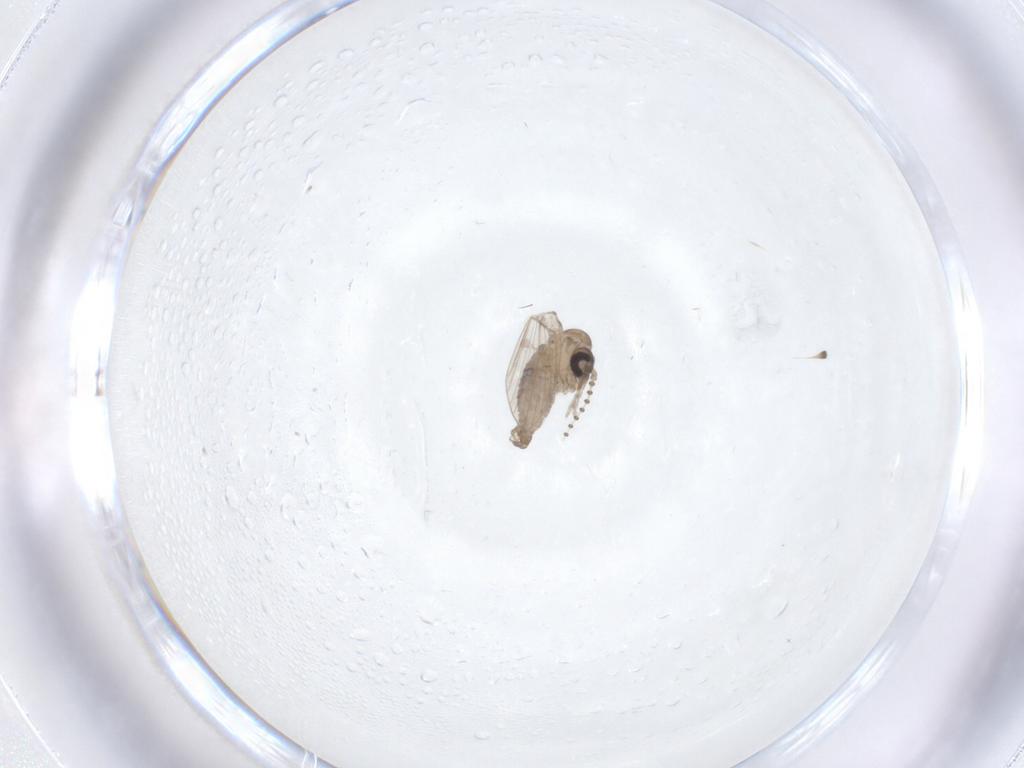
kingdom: Animalia
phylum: Arthropoda
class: Insecta
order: Diptera
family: Psychodidae
